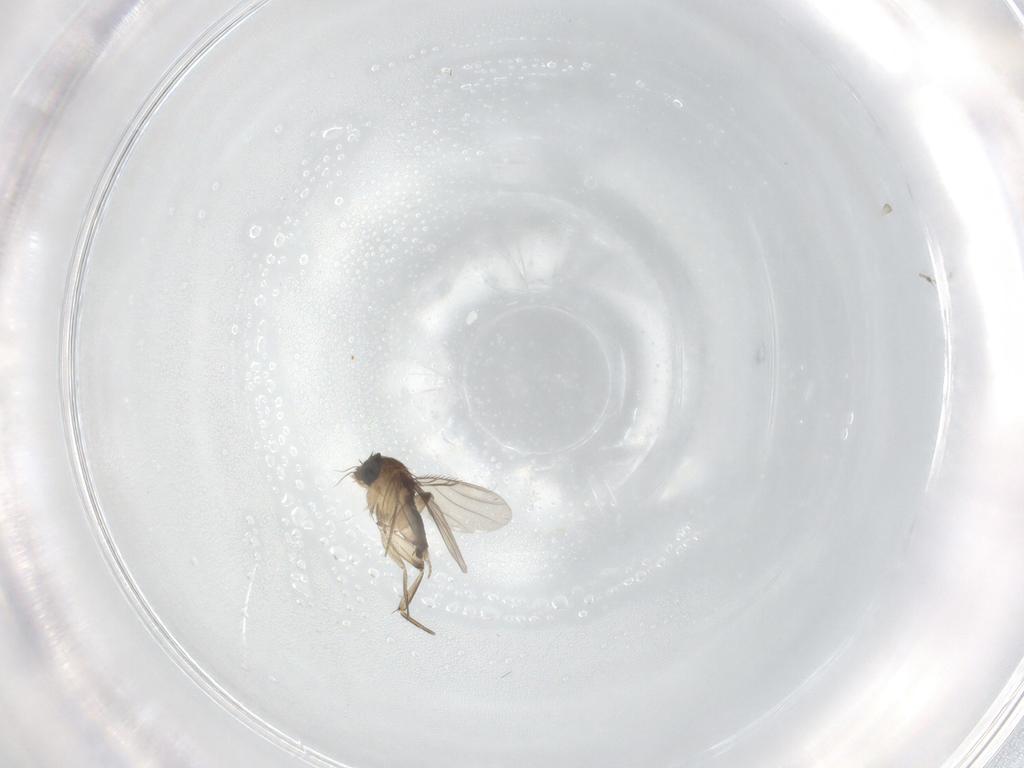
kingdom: Animalia
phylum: Arthropoda
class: Insecta
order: Diptera
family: Phoridae
